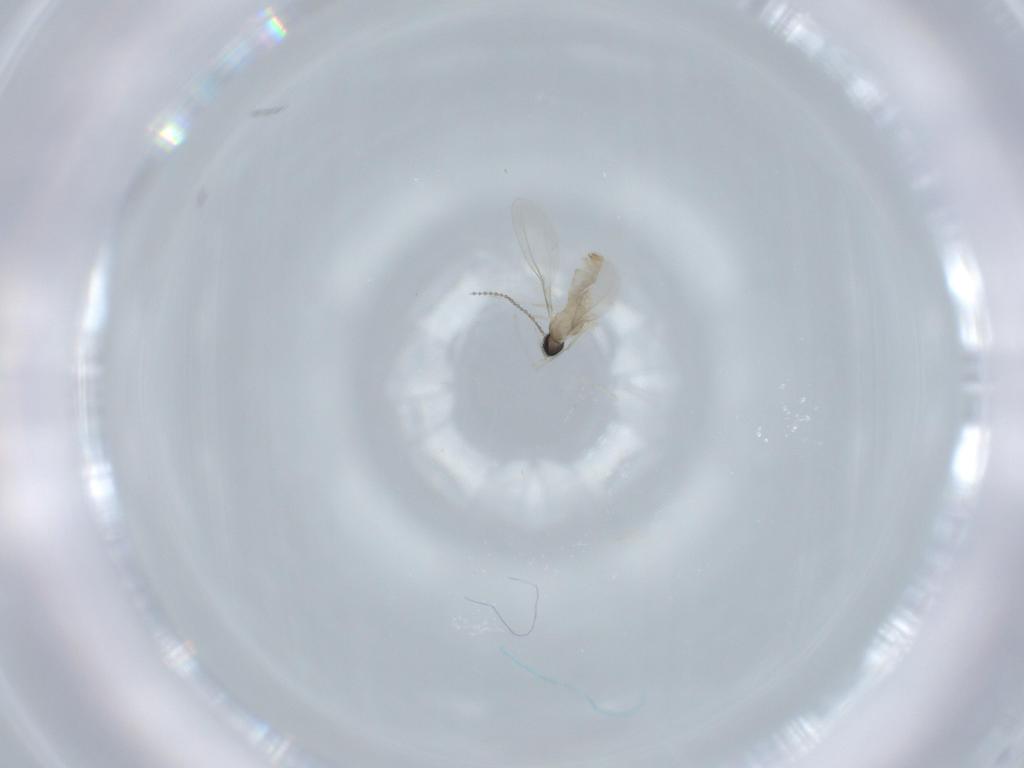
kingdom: Animalia
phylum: Arthropoda
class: Insecta
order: Diptera
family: Cecidomyiidae
